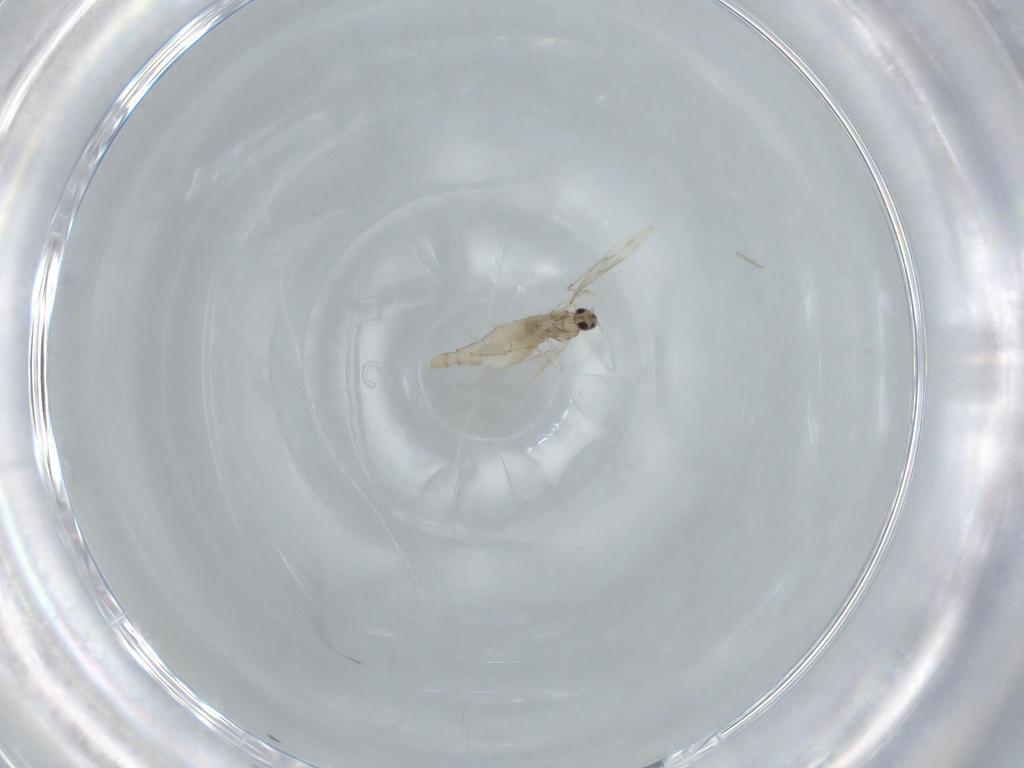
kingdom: Animalia
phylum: Arthropoda
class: Insecta
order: Diptera
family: Cecidomyiidae
